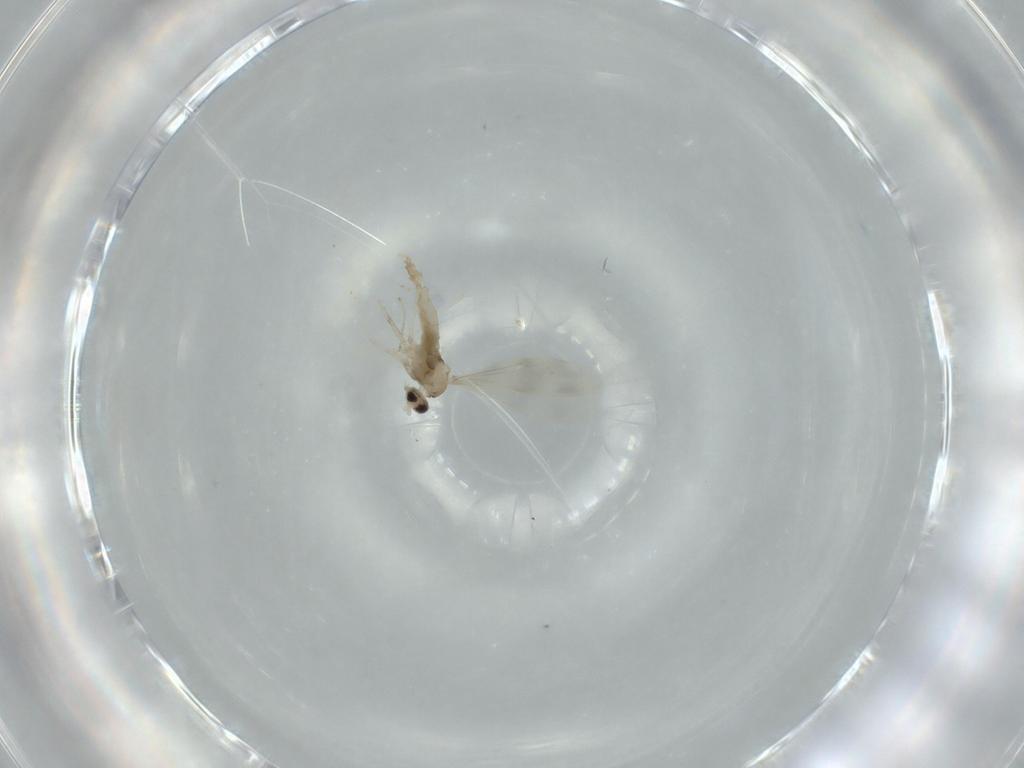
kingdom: Animalia
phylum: Arthropoda
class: Insecta
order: Diptera
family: Cecidomyiidae
